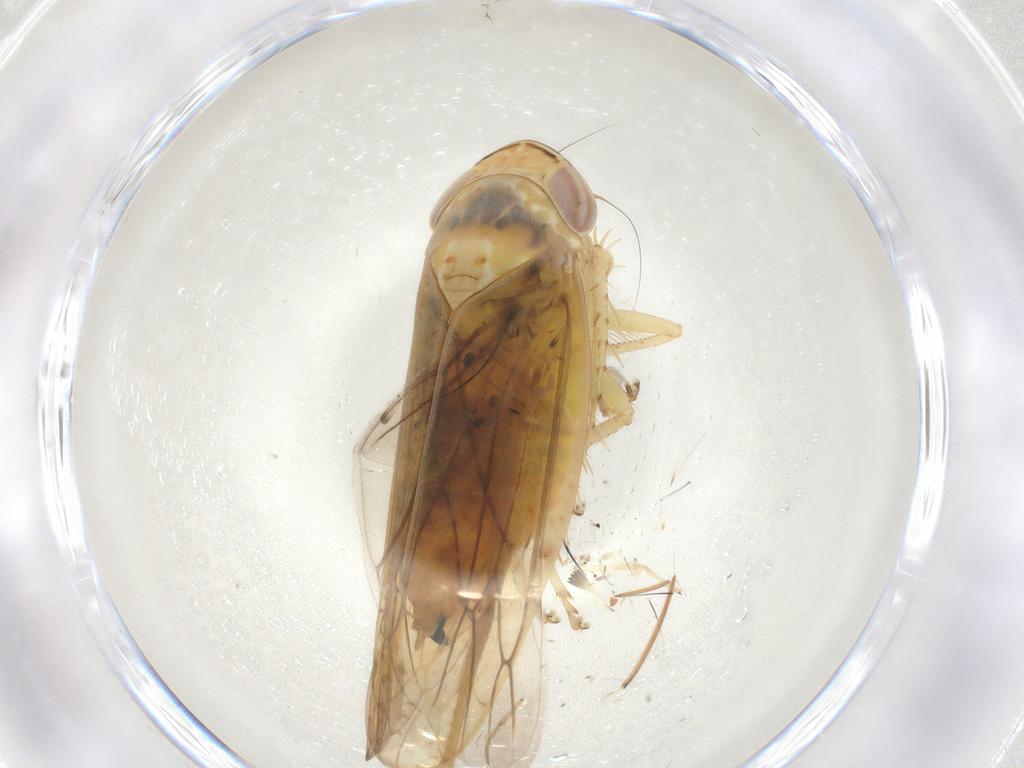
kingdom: Animalia
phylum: Arthropoda
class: Insecta
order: Hemiptera
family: Cicadellidae
